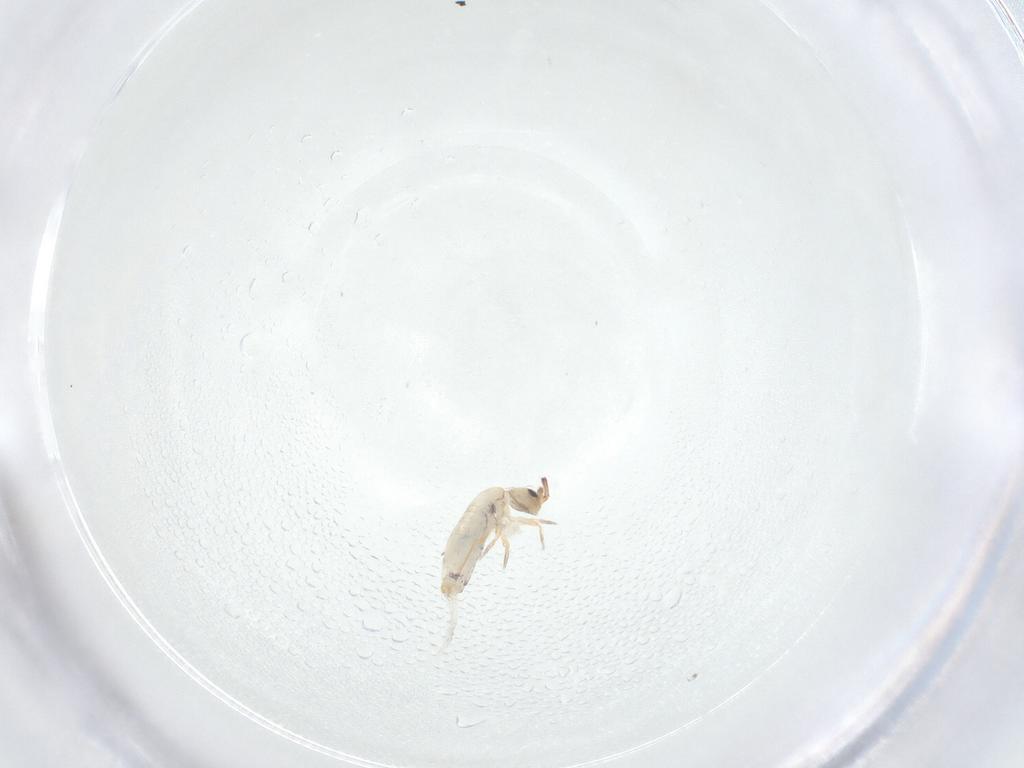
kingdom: Animalia
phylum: Arthropoda
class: Collembola
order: Entomobryomorpha
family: Entomobryidae
